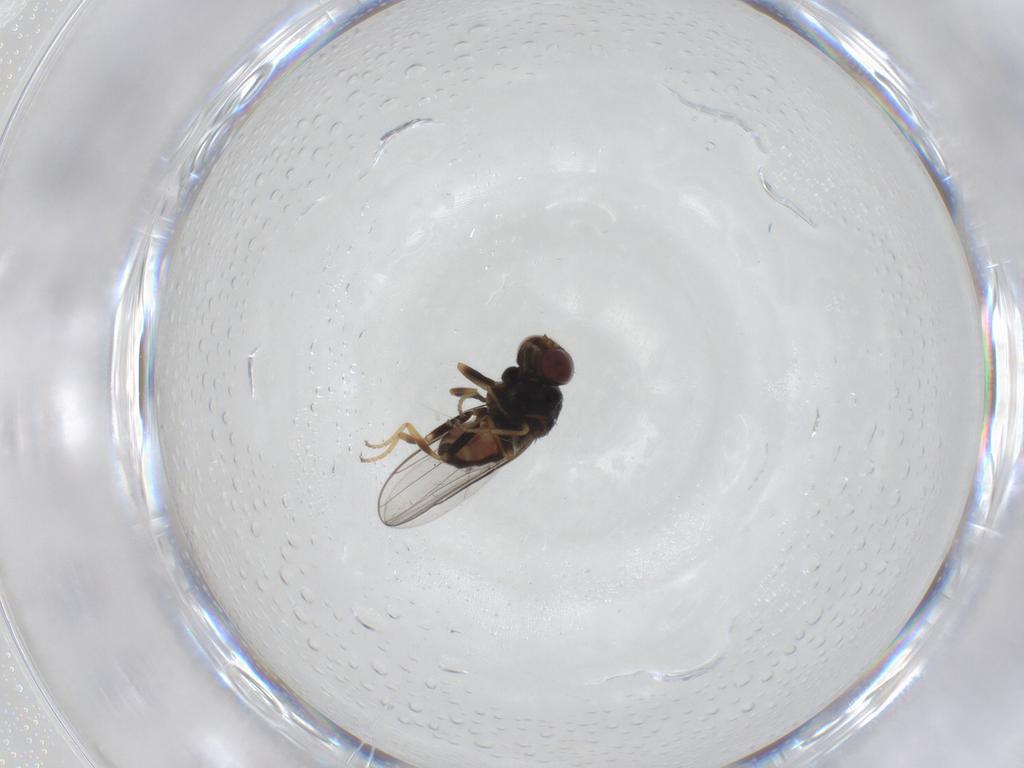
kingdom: Animalia
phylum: Arthropoda
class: Insecta
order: Diptera
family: Chloropidae
